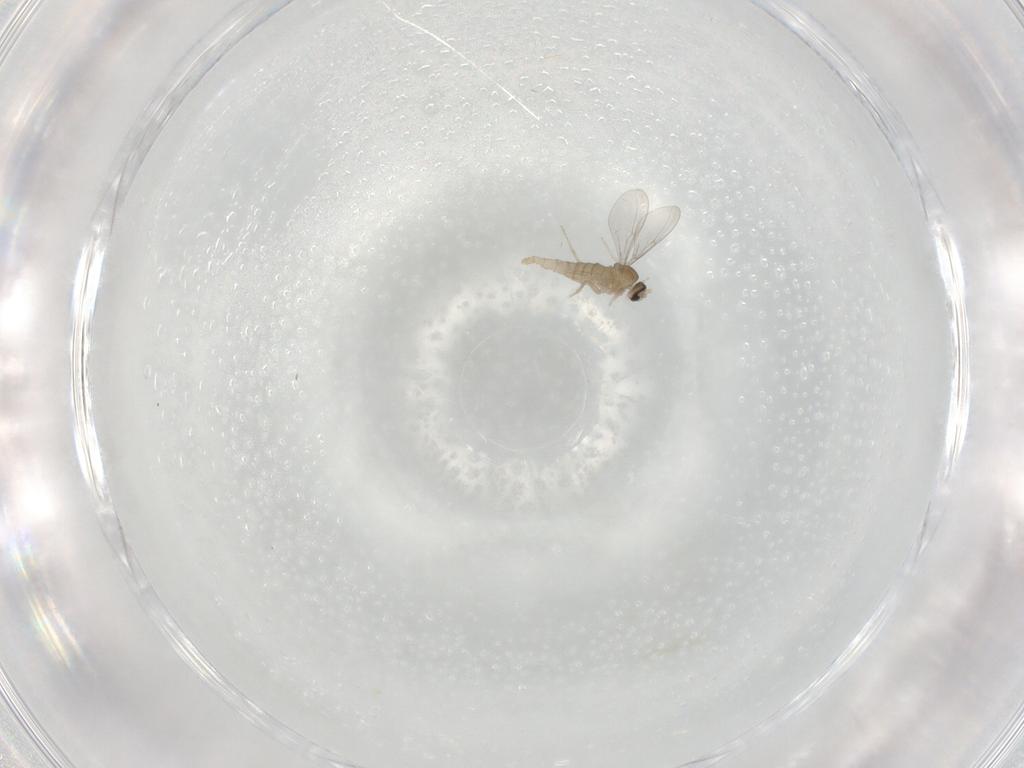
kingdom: Animalia
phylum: Arthropoda
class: Insecta
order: Diptera
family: Cecidomyiidae
